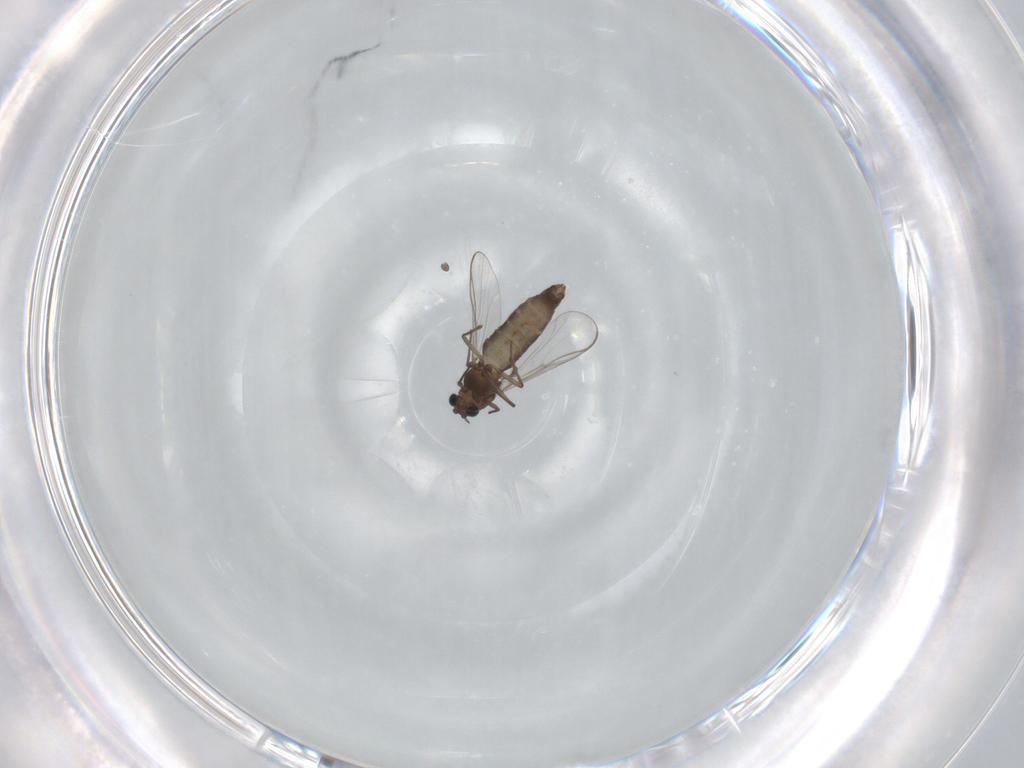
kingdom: Animalia
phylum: Arthropoda
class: Insecta
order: Diptera
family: Chironomidae
